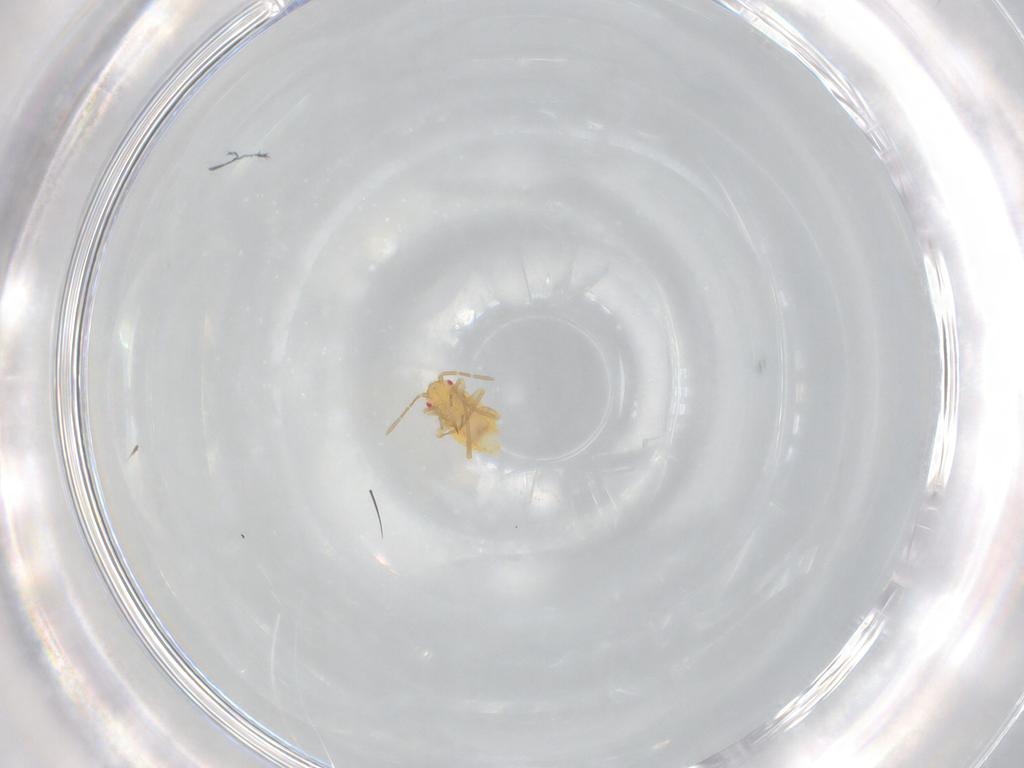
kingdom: Animalia
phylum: Arthropoda
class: Insecta
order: Hemiptera
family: Miridae
